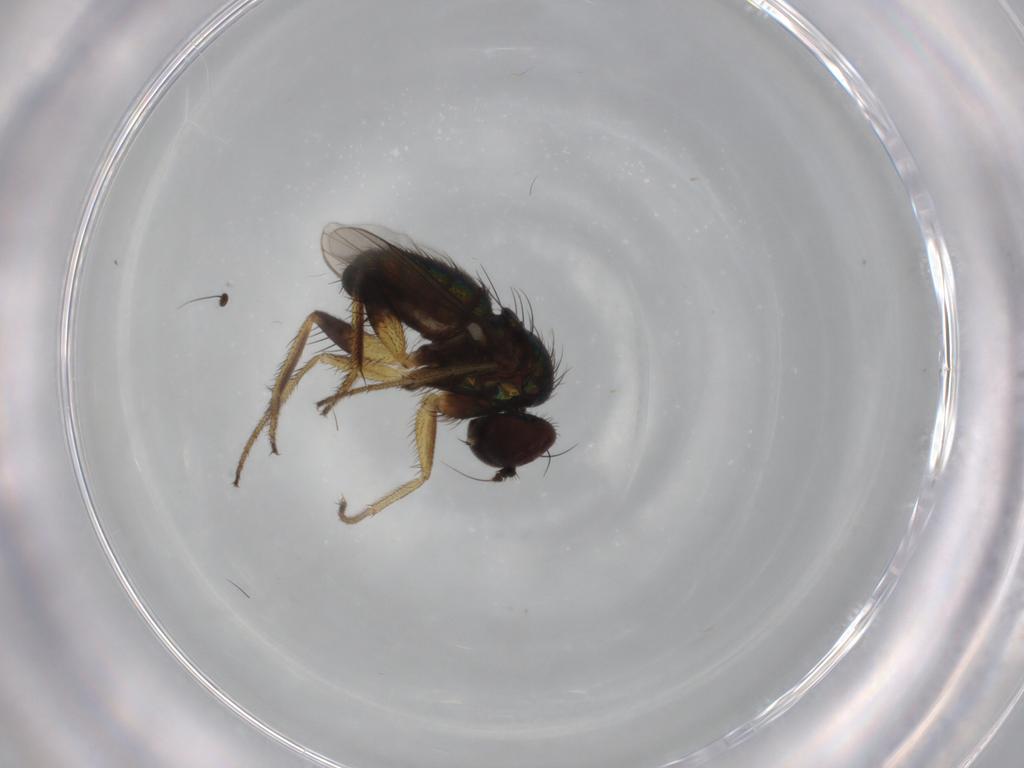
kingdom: Animalia
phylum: Arthropoda
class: Insecta
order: Diptera
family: Dolichopodidae
